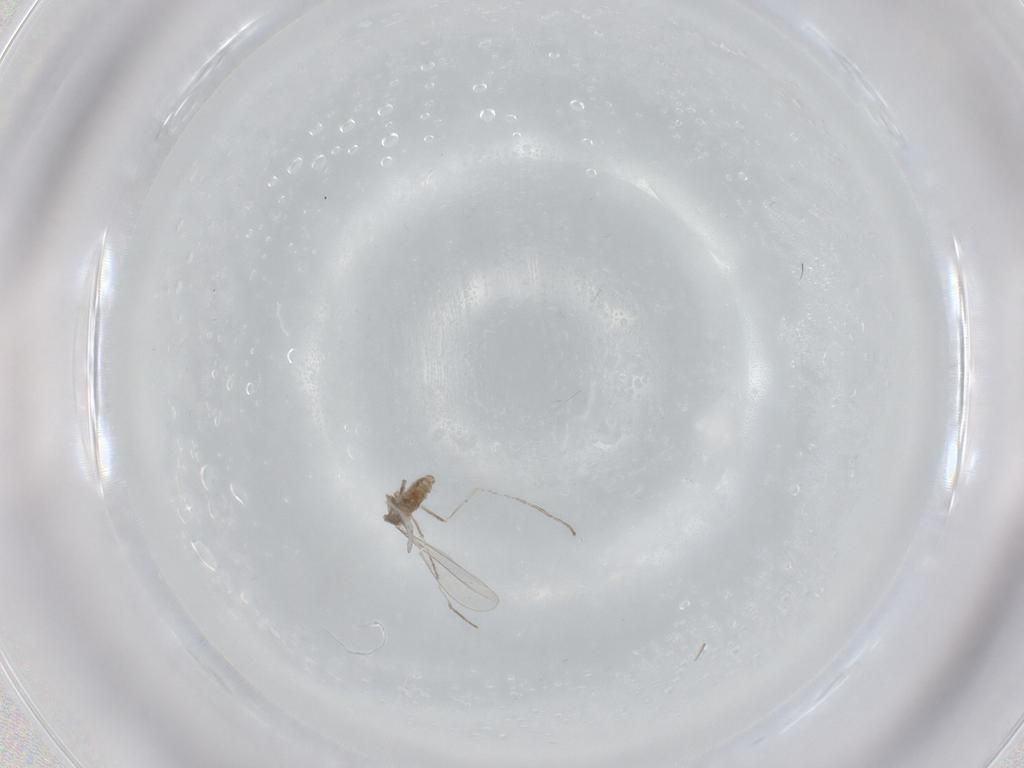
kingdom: Animalia
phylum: Arthropoda
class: Insecta
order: Diptera
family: Cecidomyiidae
